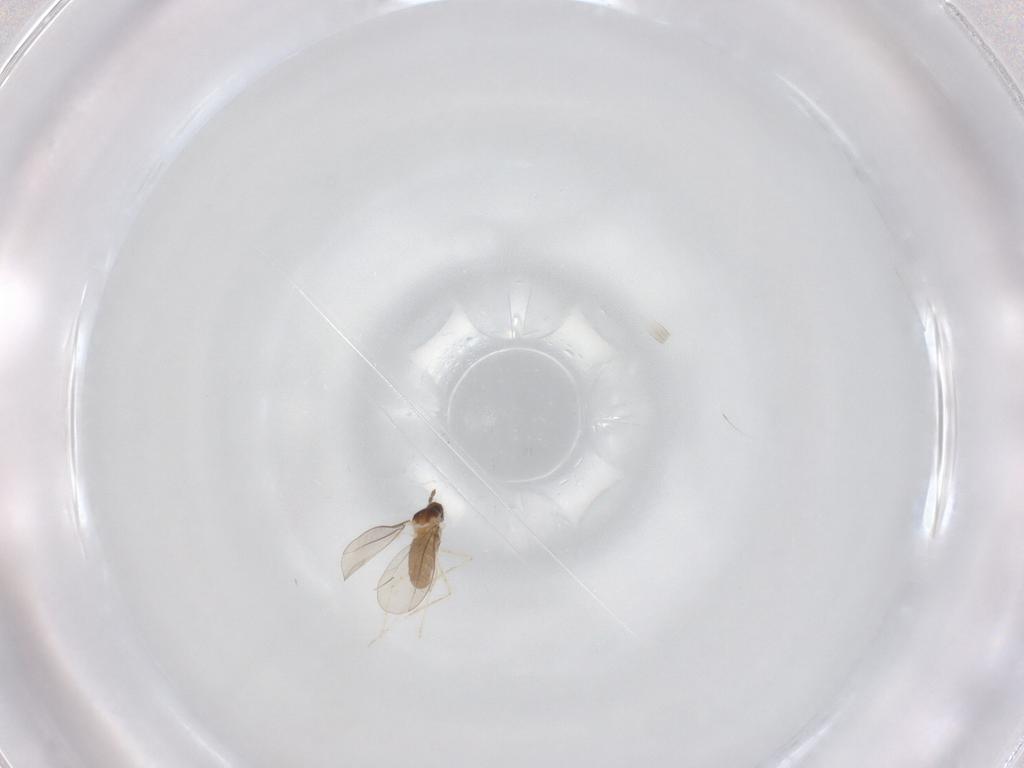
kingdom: Animalia
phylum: Arthropoda
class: Insecta
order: Diptera
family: Cecidomyiidae
